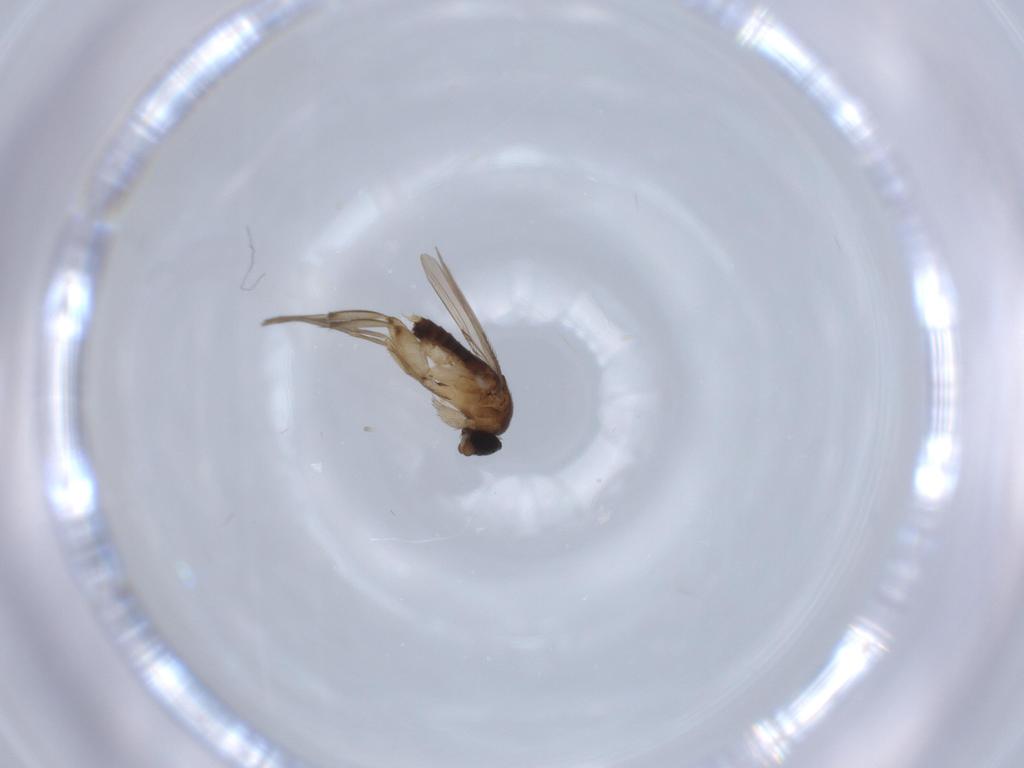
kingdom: Animalia
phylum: Arthropoda
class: Insecta
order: Diptera
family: Phoridae
